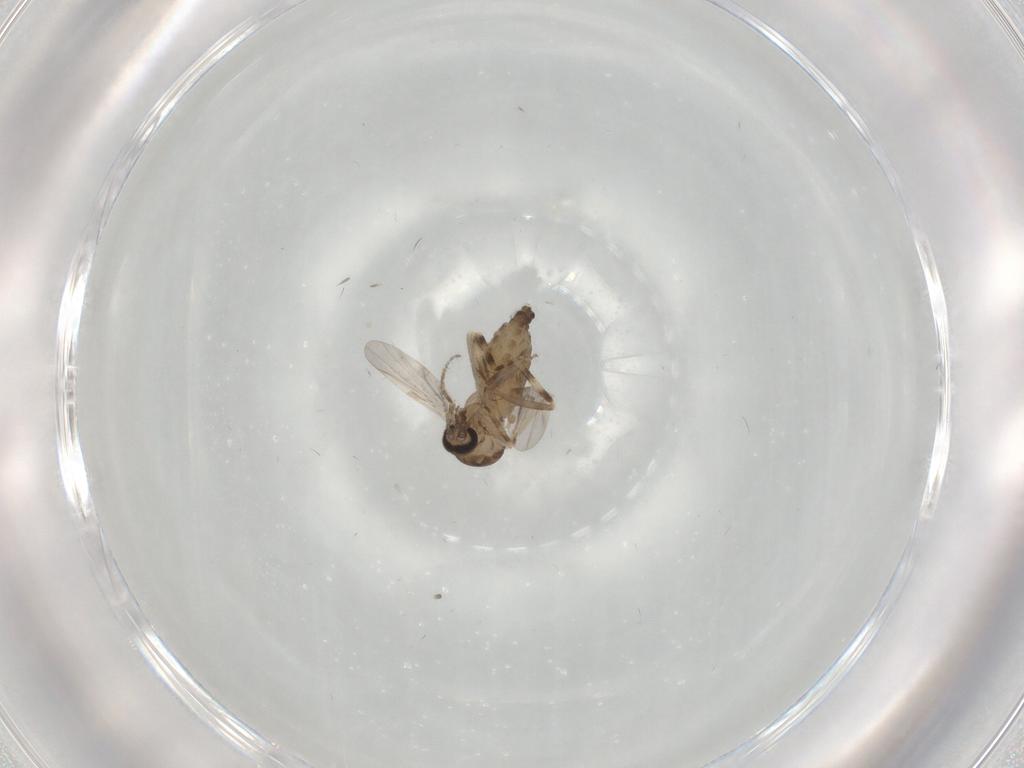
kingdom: Animalia
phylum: Arthropoda
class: Insecta
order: Diptera
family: Ceratopogonidae
